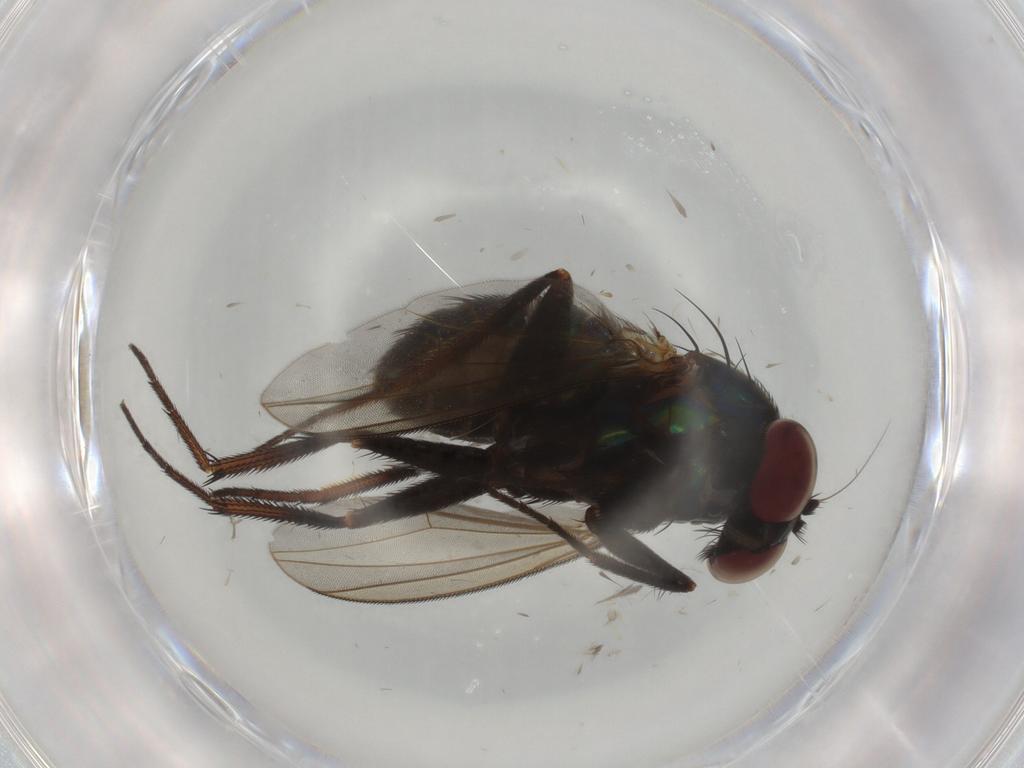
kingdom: Animalia
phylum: Arthropoda
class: Insecta
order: Diptera
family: Dolichopodidae
